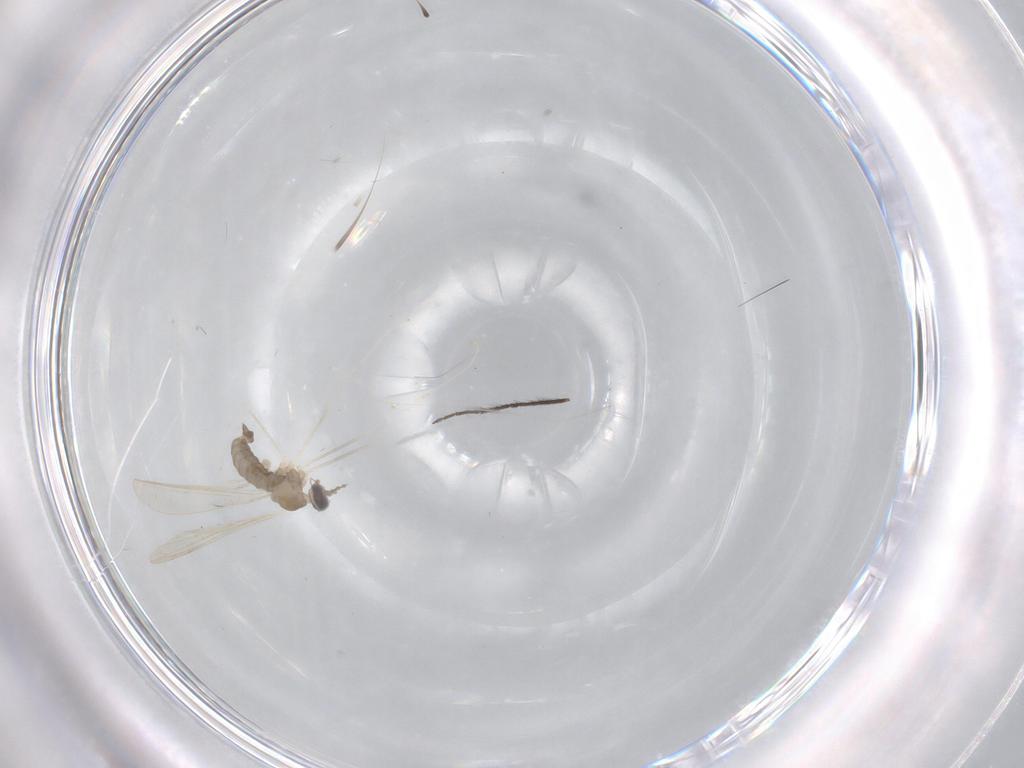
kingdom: Animalia
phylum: Arthropoda
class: Insecta
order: Diptera
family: Cecidomyiidae
